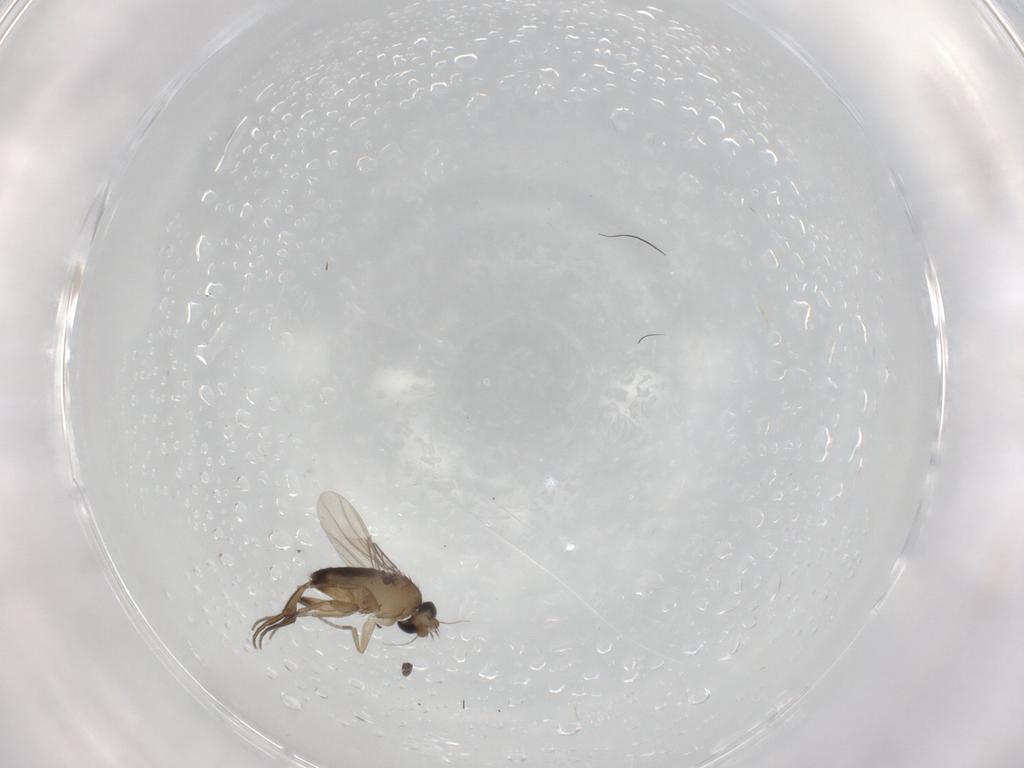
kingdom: Animalia
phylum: Arthropoda
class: Insecta
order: Diptera
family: Phoridae
